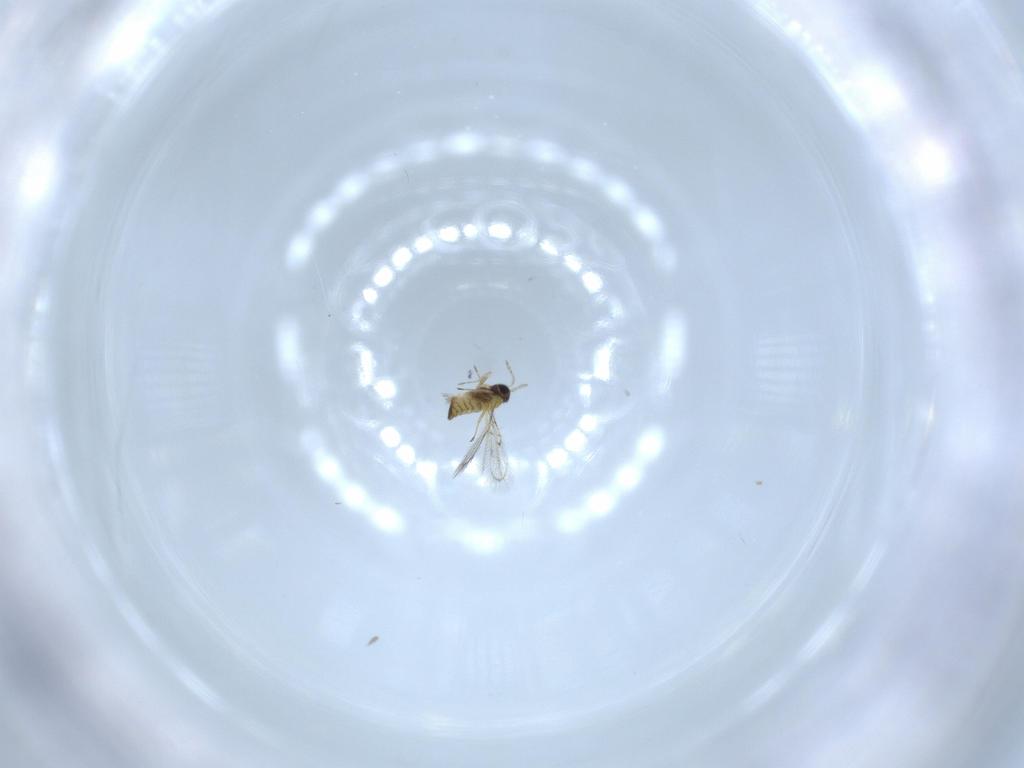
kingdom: Animalia
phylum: Arthropoda
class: Insecta
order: Hymenoptera
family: Trichogrammatidae
